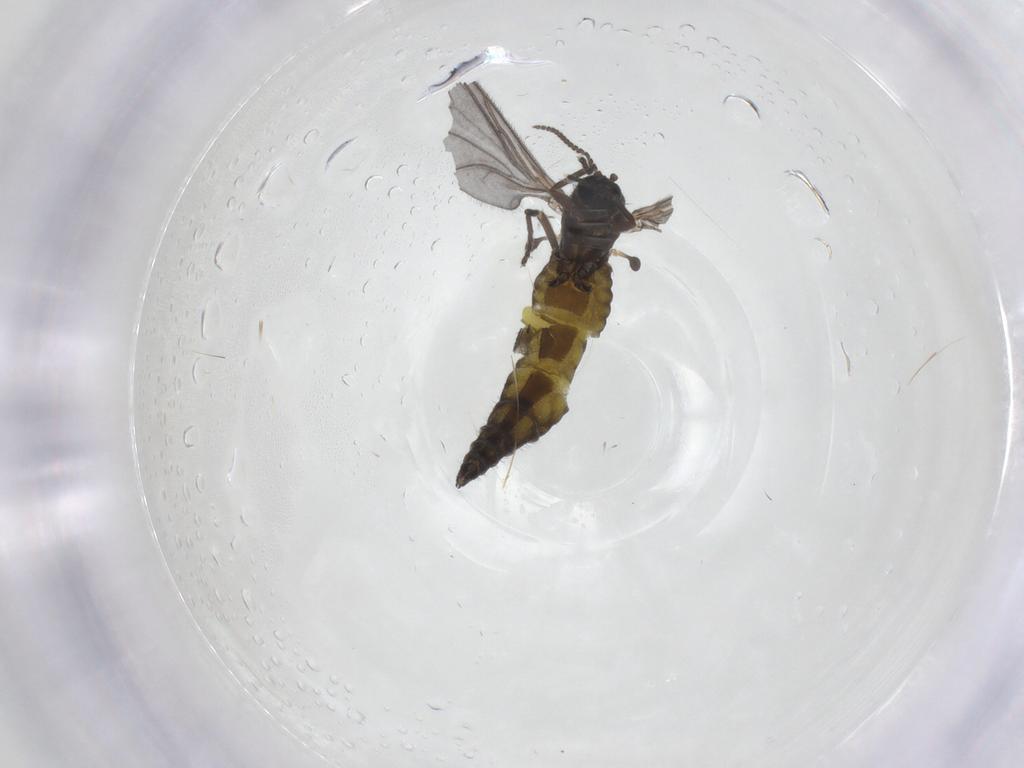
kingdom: Animalia
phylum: Arthropoda
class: Insecta
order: Diptera
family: Sciaridae
